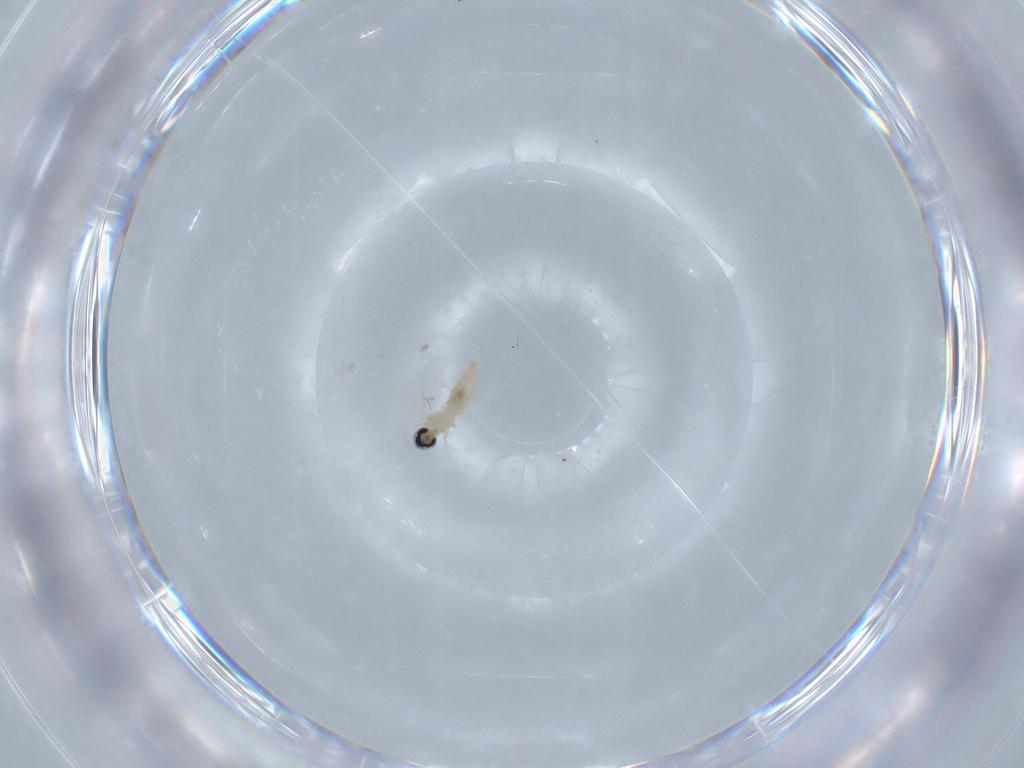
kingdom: Animalia
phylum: Arthropoda
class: Insecta
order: Diptera
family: Cecidomyiidae
